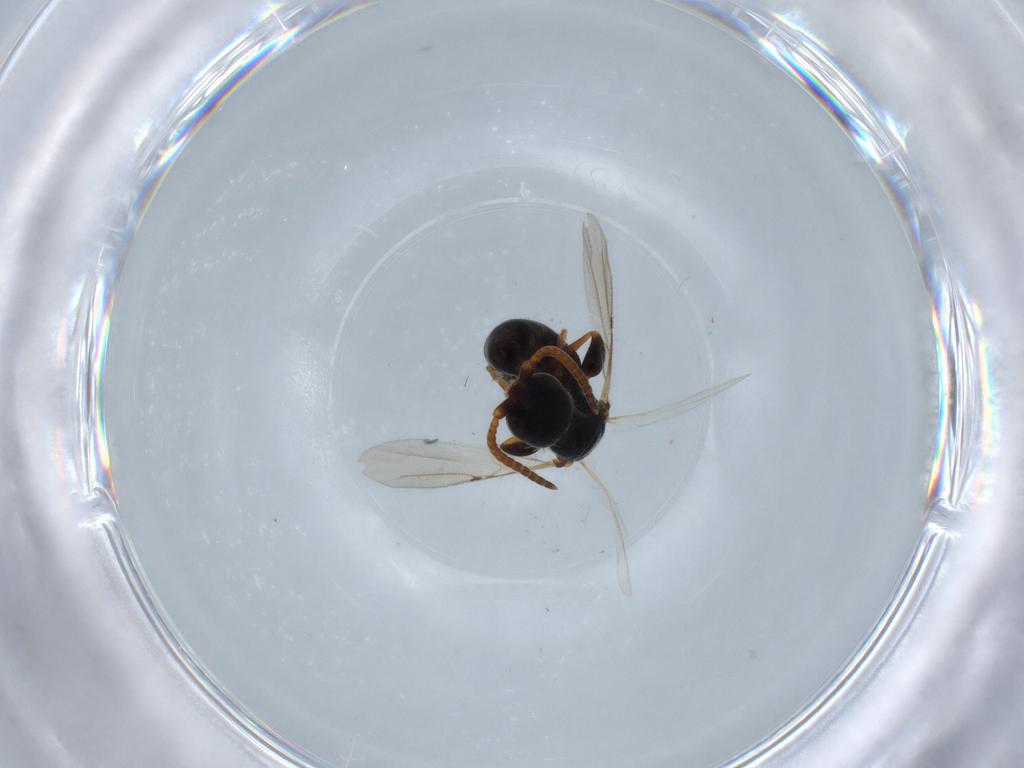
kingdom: Animalia
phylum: Arthropoda
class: Insecta
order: Hymenoptera
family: Bethylidae
